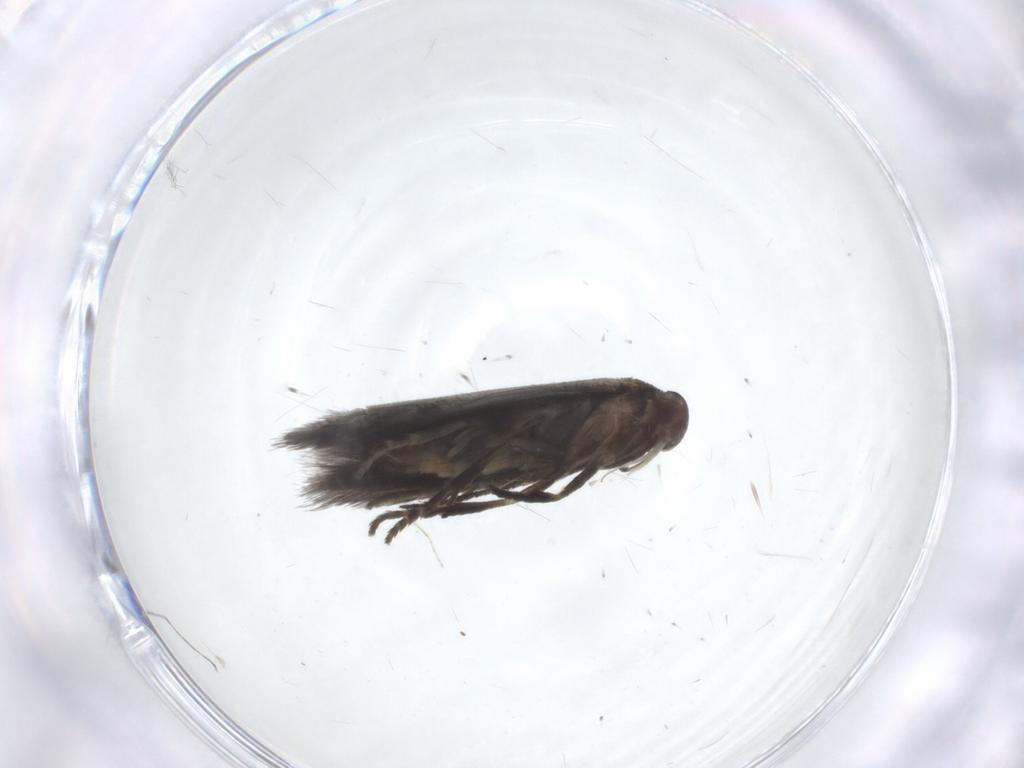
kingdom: Animalia
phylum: Arthropoda
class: Insecta
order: Lepidoptera
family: Elachistidae
